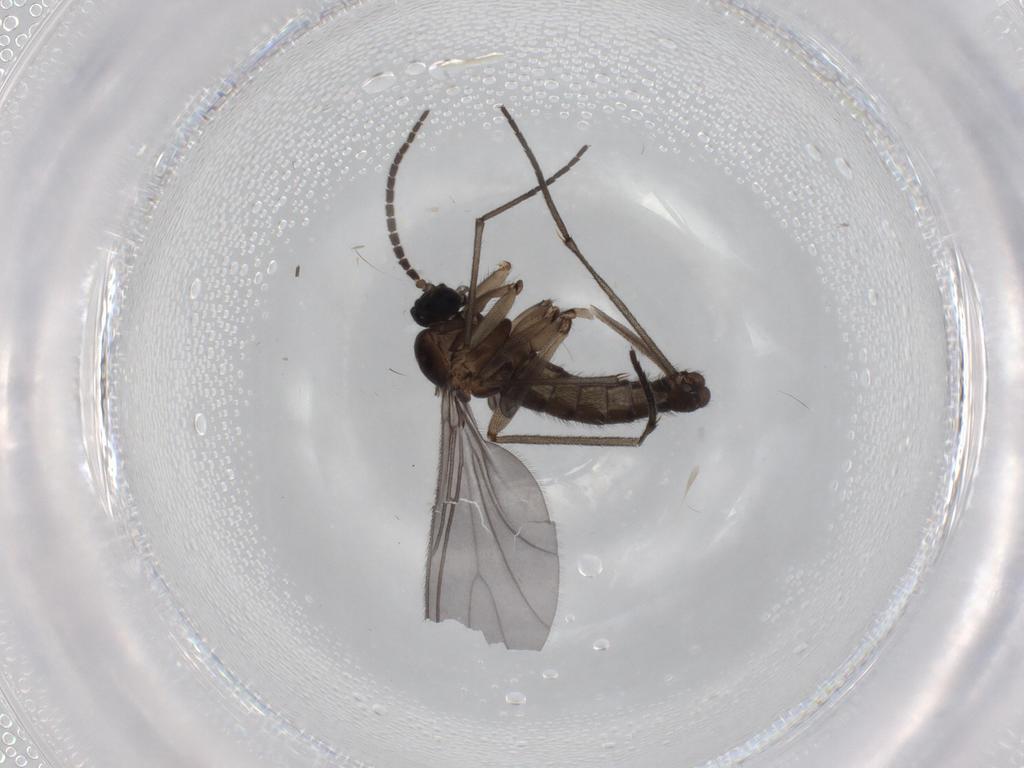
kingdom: Animalia
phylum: Arthropoda
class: Insecta
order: Diptera
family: Sciaridae
